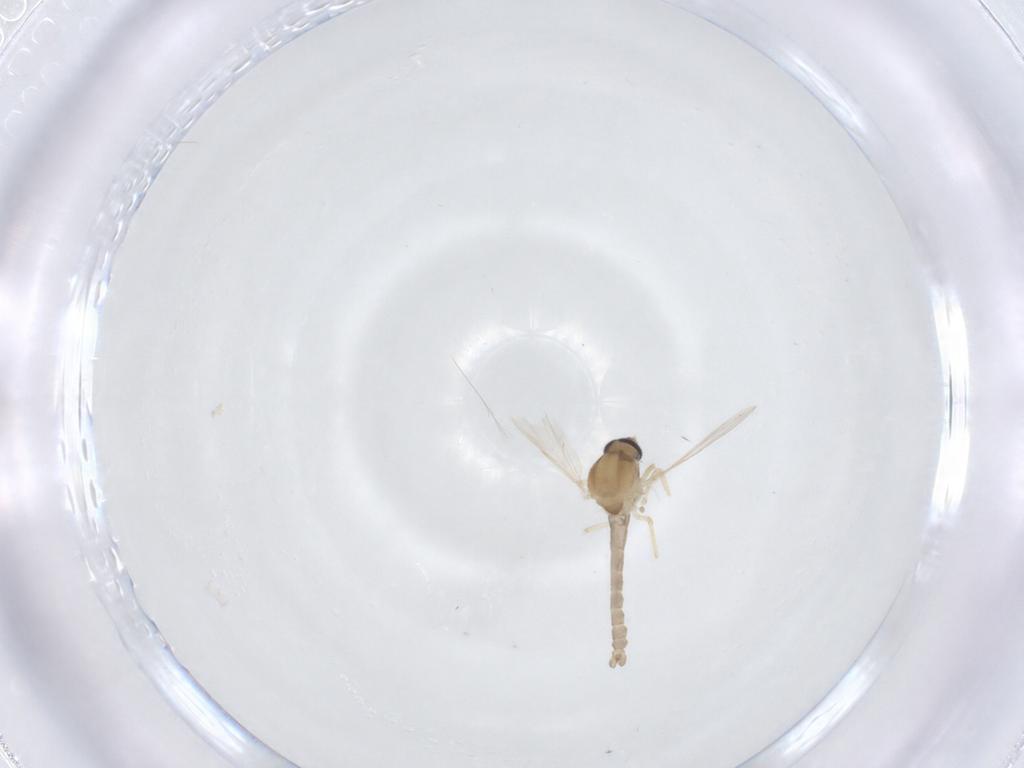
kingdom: Animalia
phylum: Arthropoda
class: Insecta
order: Diptera
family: Ceratopogonidae
